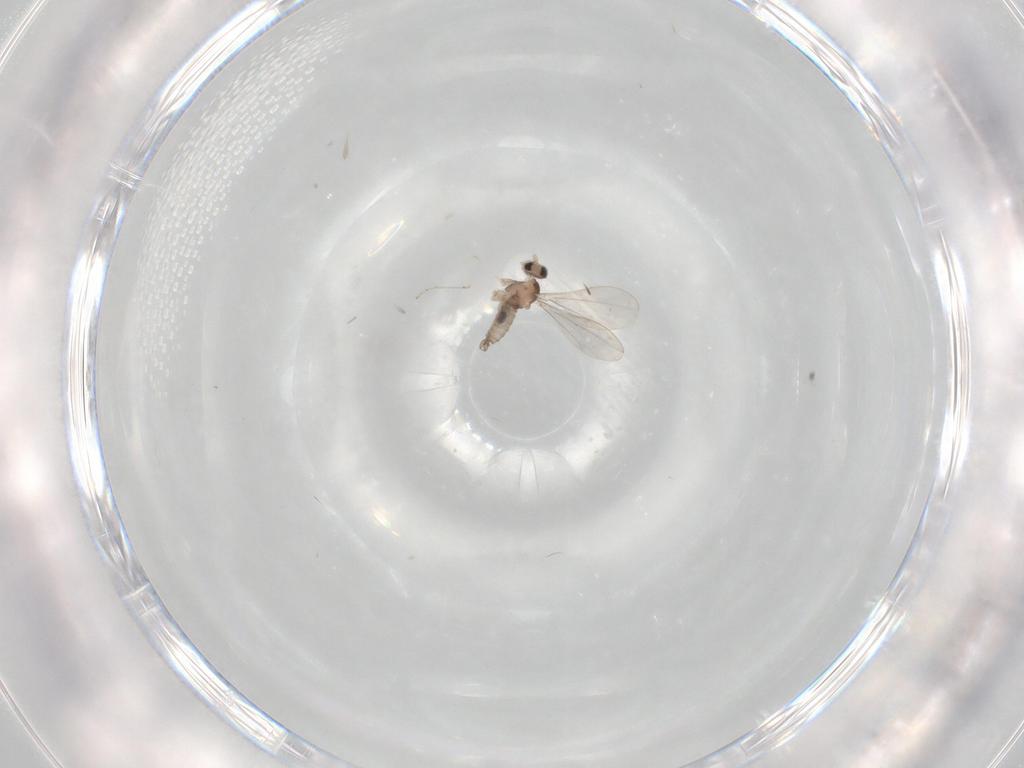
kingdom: Animalia
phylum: Arthropoda
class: Insecta
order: Diptera
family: Cecidomyiidae
